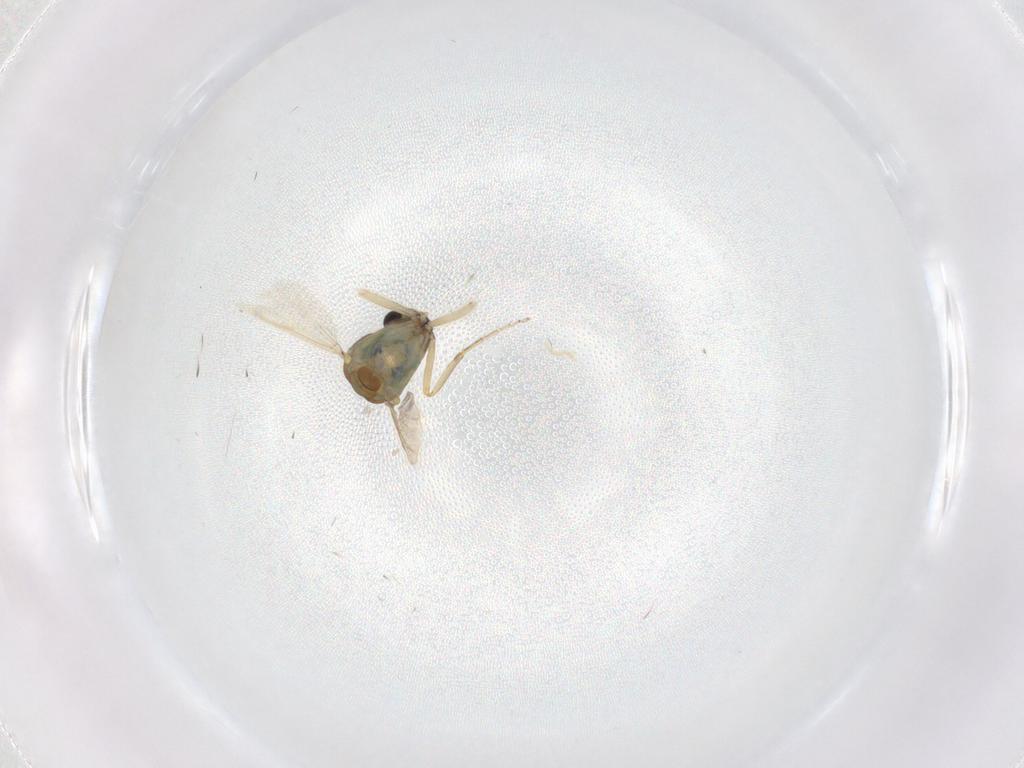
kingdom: Animalia
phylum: Arthropoda
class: Insecta
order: Diptera
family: Ceratopogonidae
